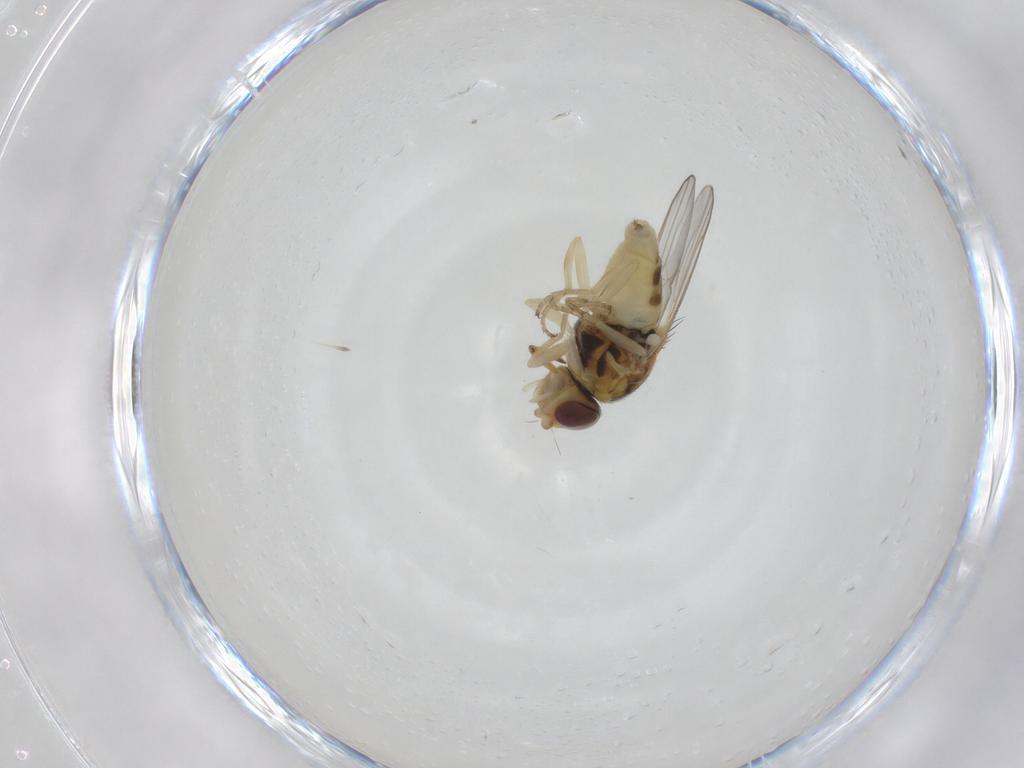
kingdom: Animalia
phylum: Arthropoda
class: Insecta
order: Diptera
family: Chloropidae
